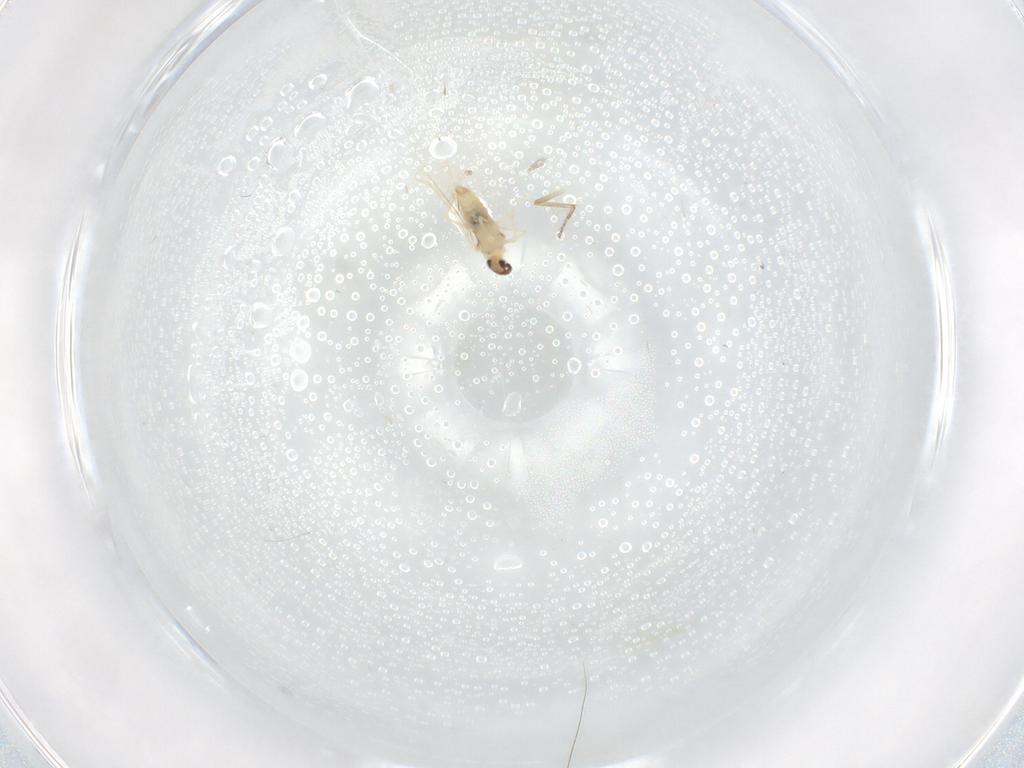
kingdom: Animalia
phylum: Arthropoda
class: Insecta
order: Diptera
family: Cecidomyiidae
